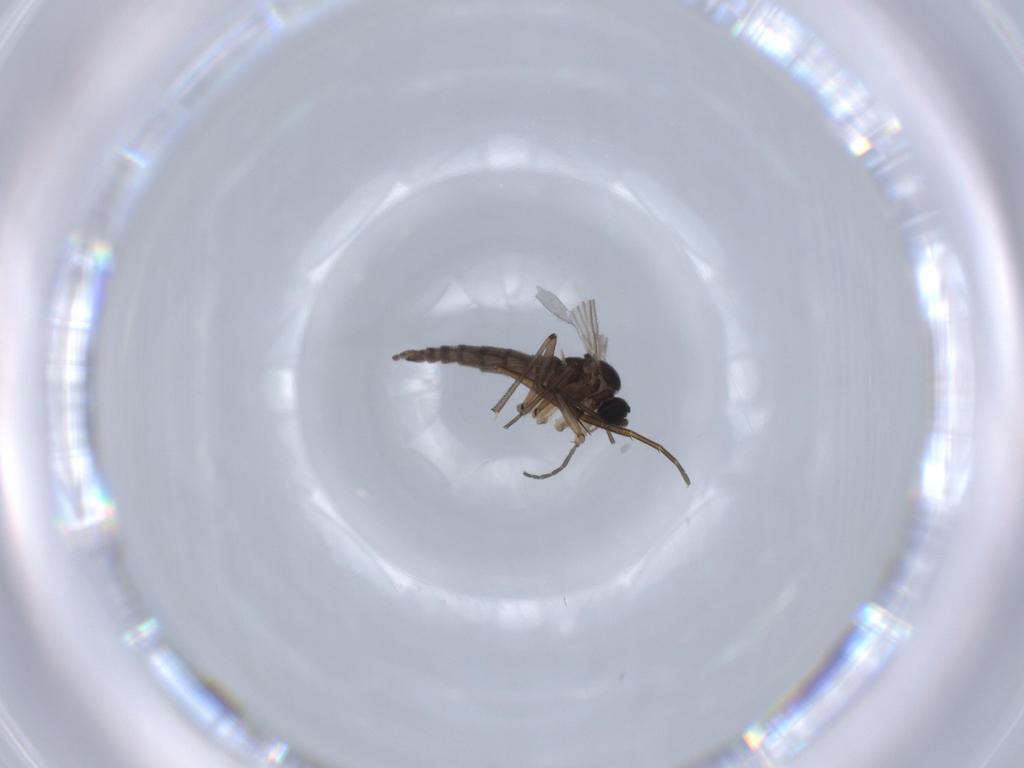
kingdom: Animalia
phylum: Arthropoda
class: Insecta
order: Diptera
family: Sciaridae
